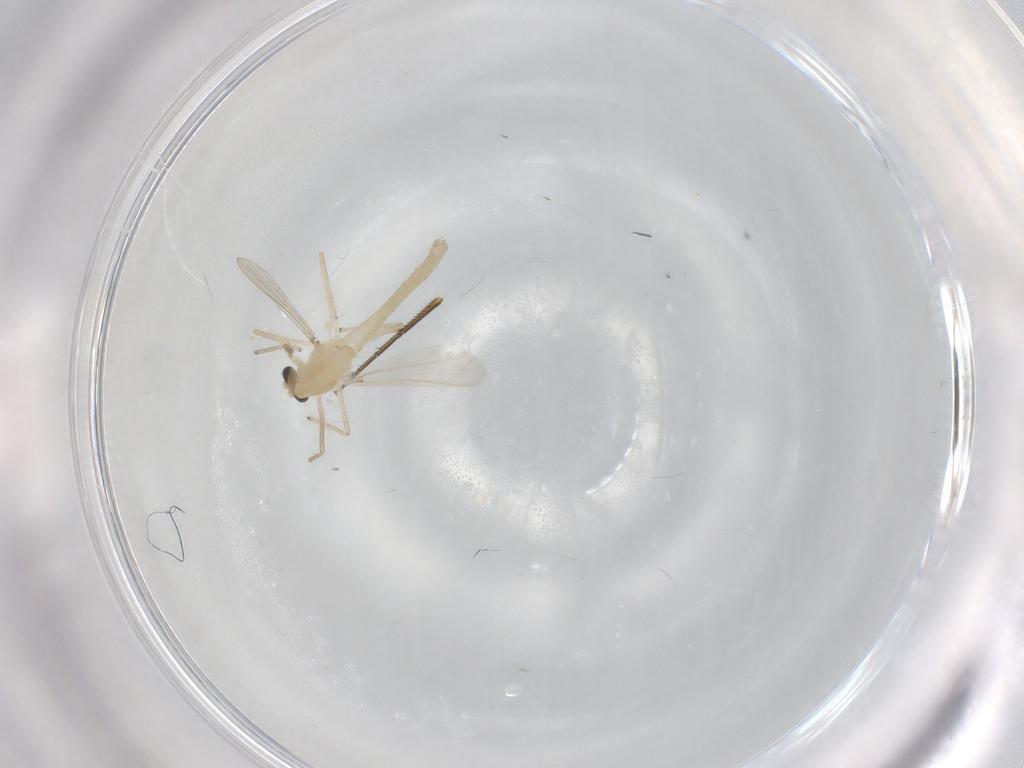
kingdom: Animalia
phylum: Arthropoda
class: Insecta
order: Diptera
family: Chironomidae
